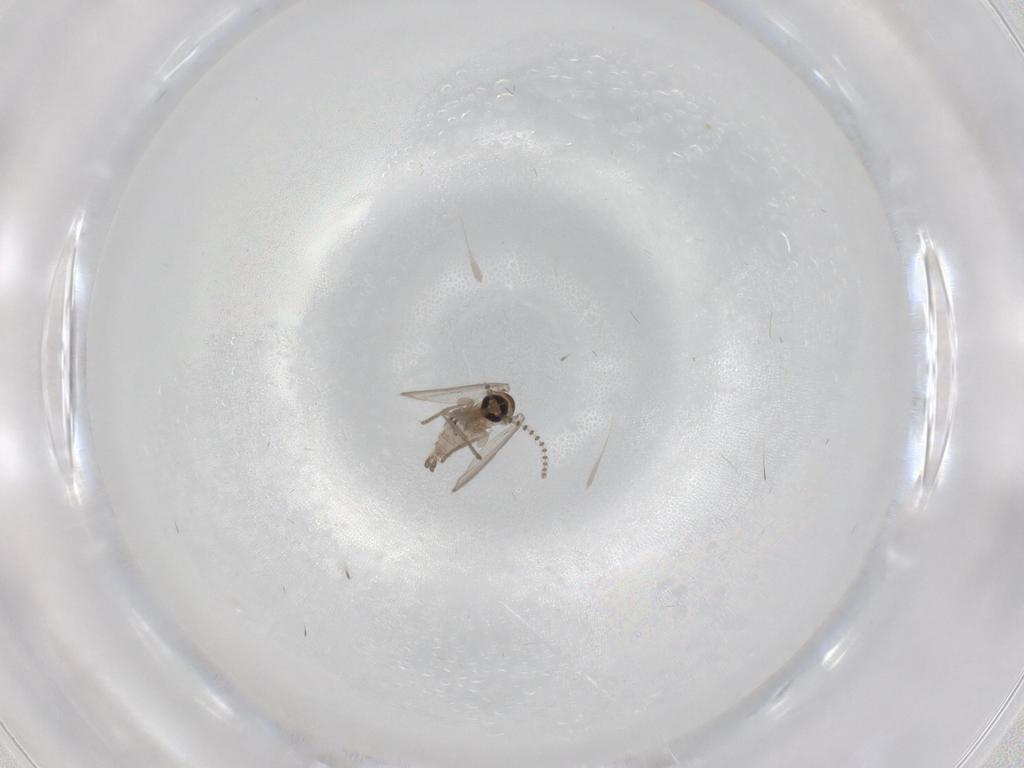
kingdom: Animalia
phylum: Arthropoda
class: Insecta
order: Diptera
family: Psychodidae
